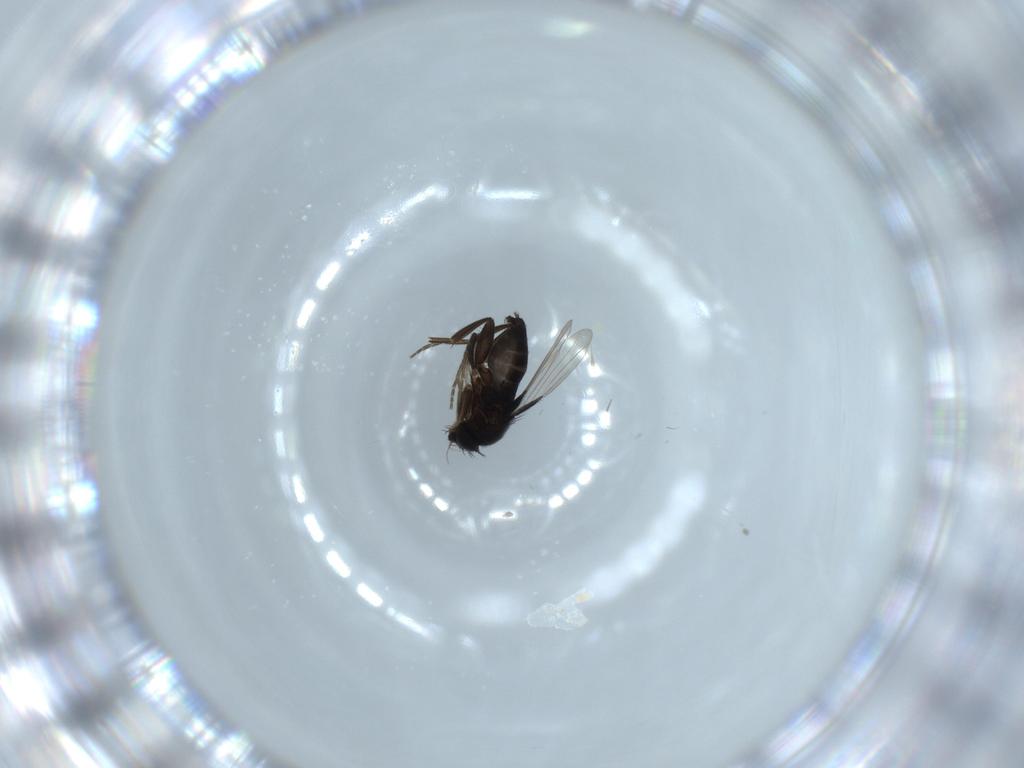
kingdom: Animalia
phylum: Arthropoda
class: Insecta
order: Diptera
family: Phoridae
